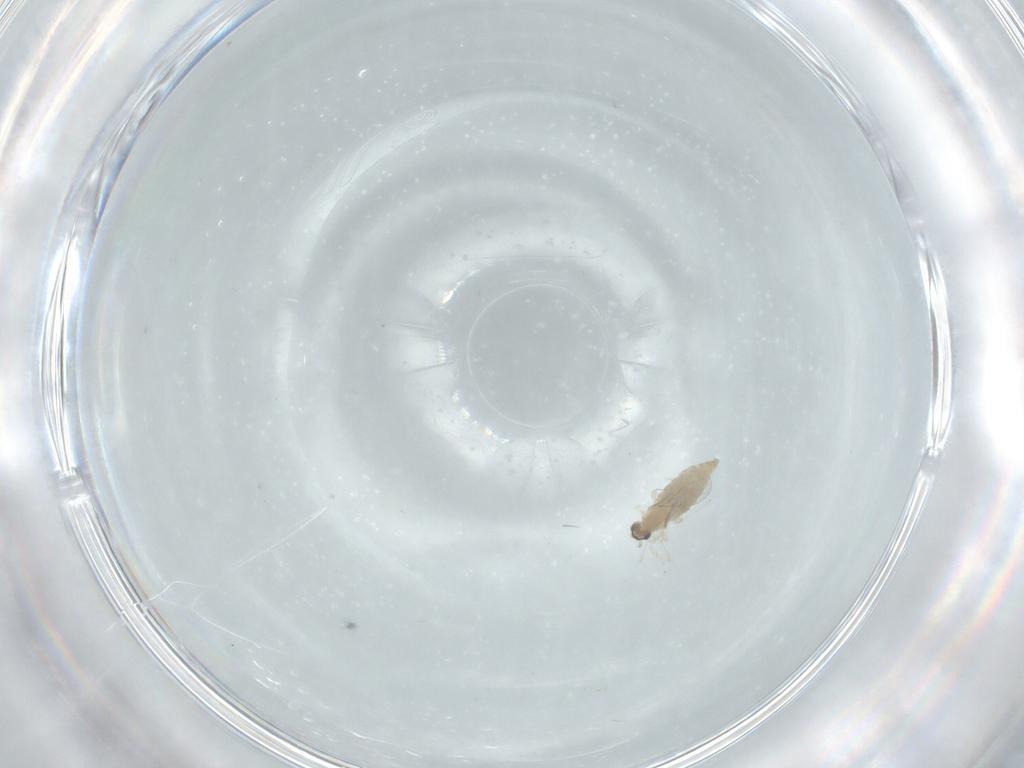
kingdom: Animalia
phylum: Arthropoda
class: Insecta
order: Diptera
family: Cecidomyiidae
